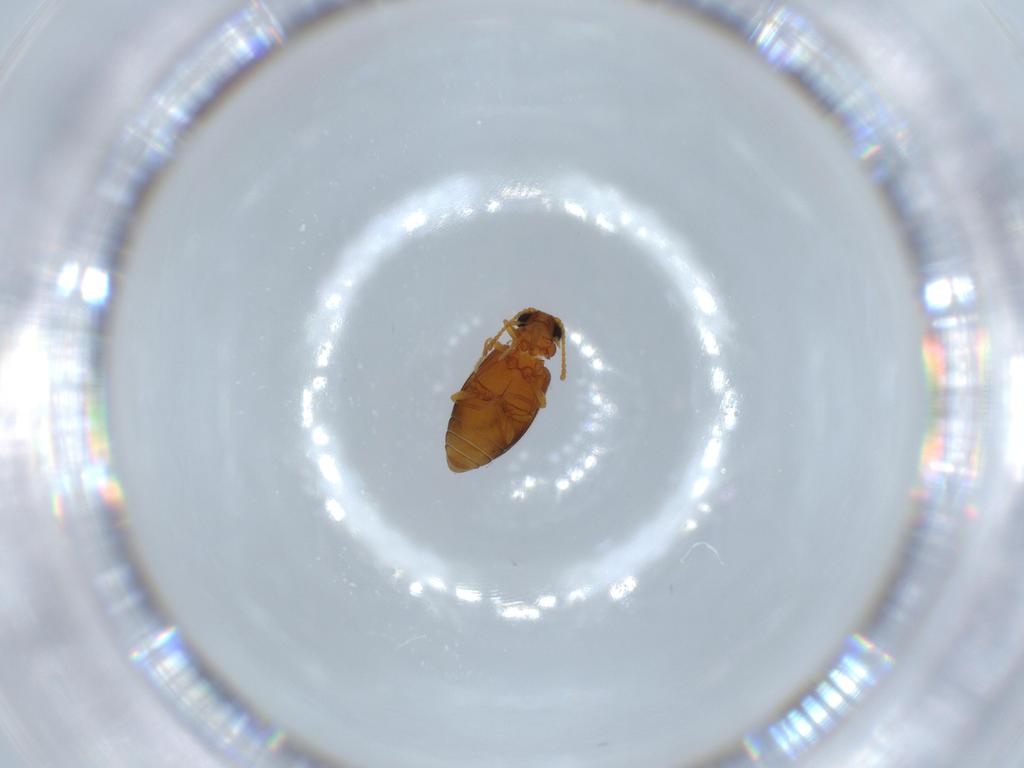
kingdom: Animalia
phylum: Arthropoda
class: Insecta
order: Coleoptera
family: Aderidae
